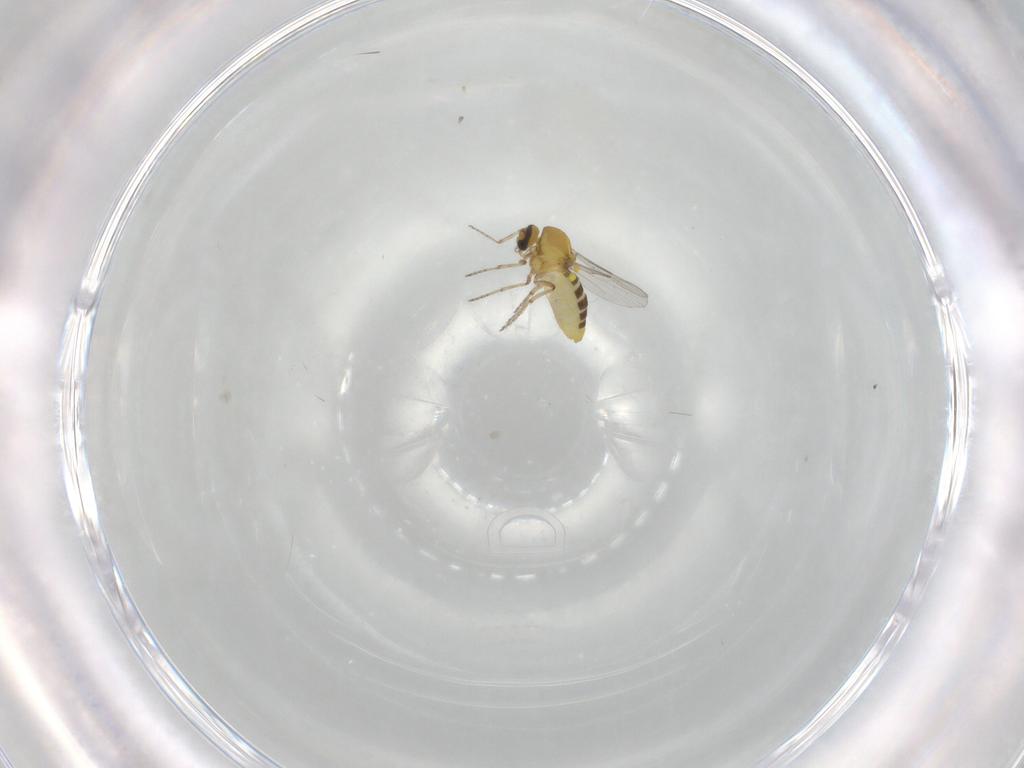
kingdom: Animalia
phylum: Arthropoda
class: Insecta
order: Diptera
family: Ceratopogonidae
